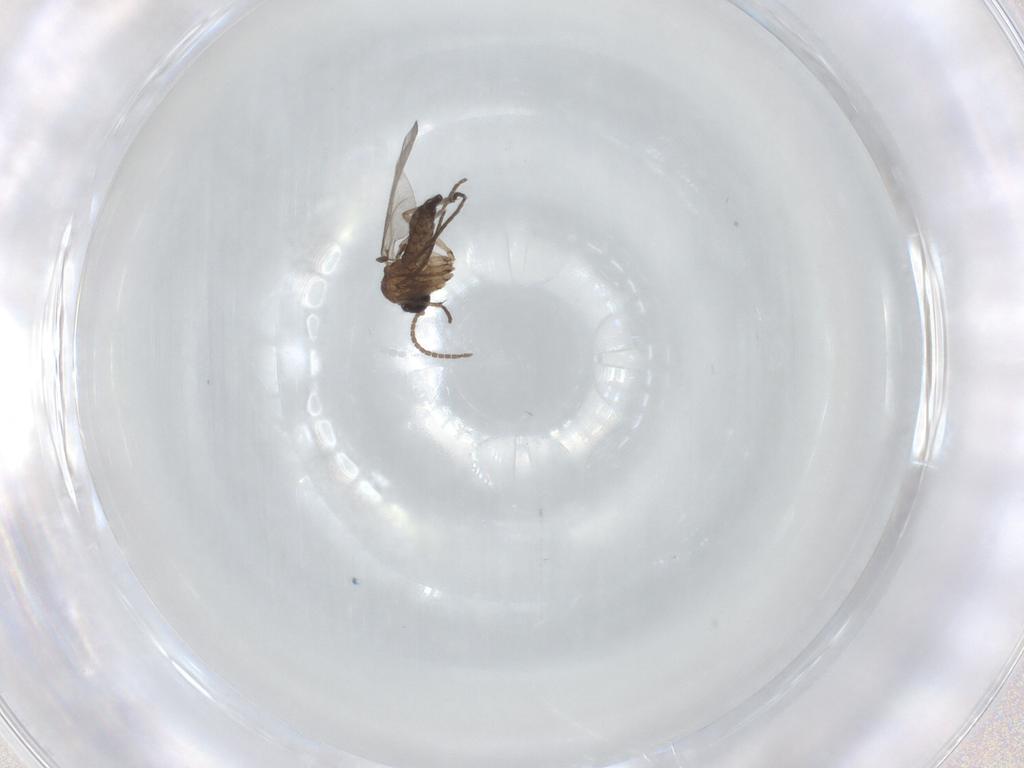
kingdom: Animalia
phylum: Arthropoda
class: Insecta
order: Diptera
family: Sciaridae
